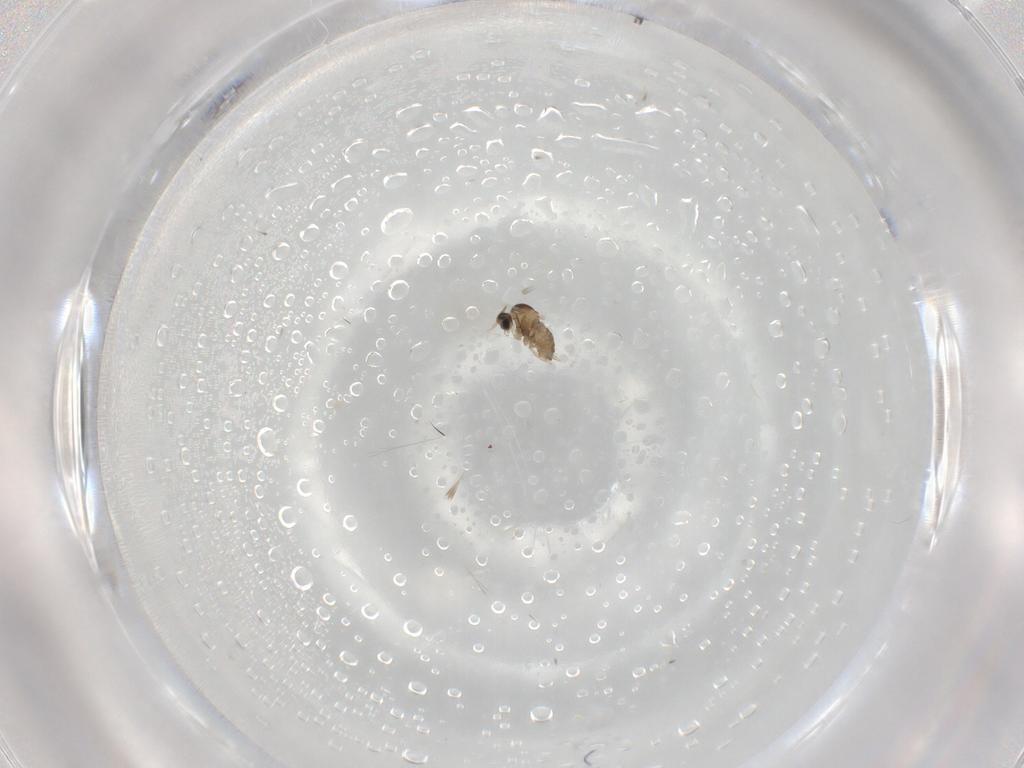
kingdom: Animalia
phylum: Arthropoda
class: Insecta
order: Diptera
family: Cecidomyiidae
